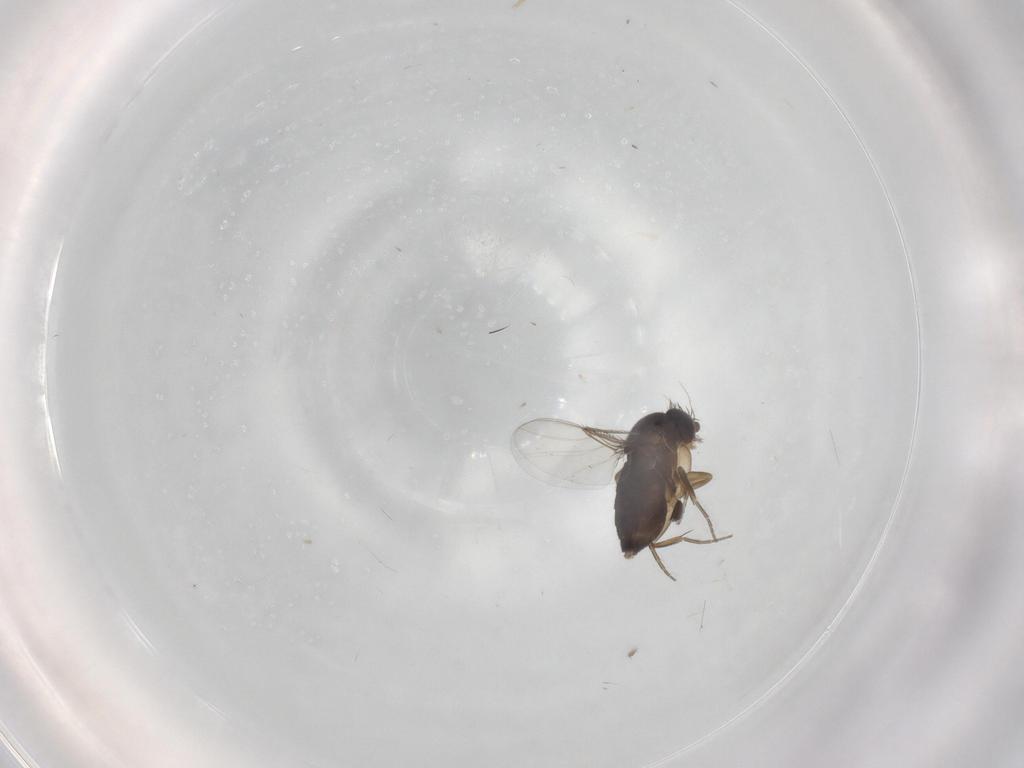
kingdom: Animalia
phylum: Arthropoda
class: Insecta
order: Diptera
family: Phoridae
